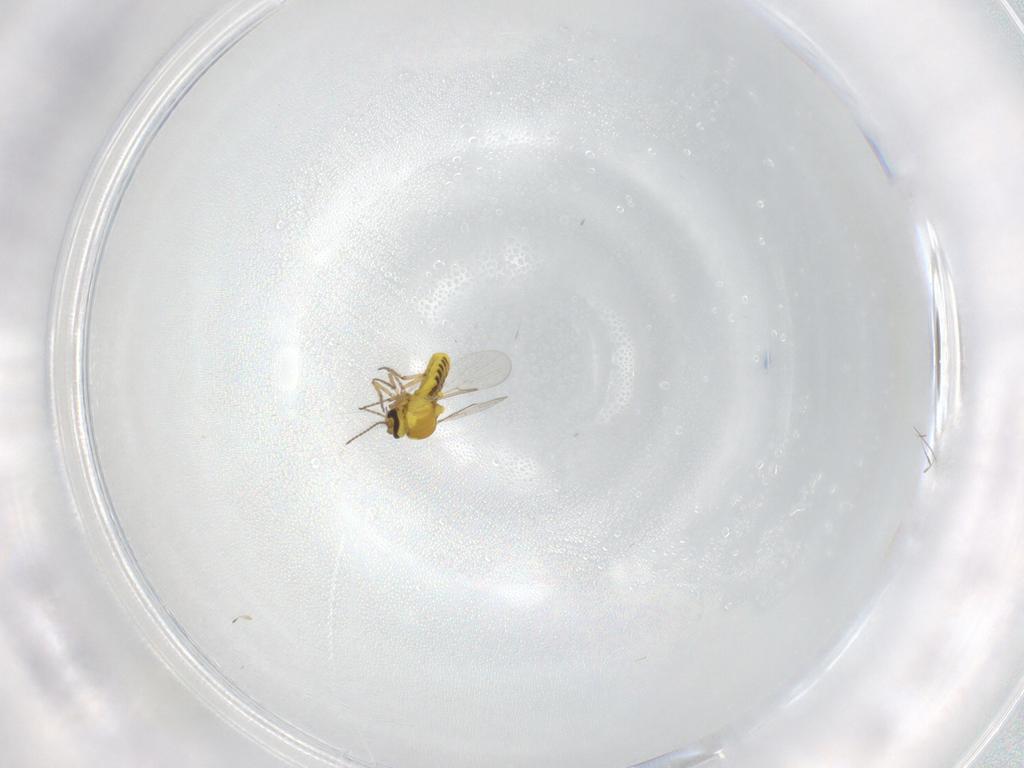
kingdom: Animalia
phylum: Arthropoda
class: Insecta
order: Diptera
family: Ceratopogonidae
